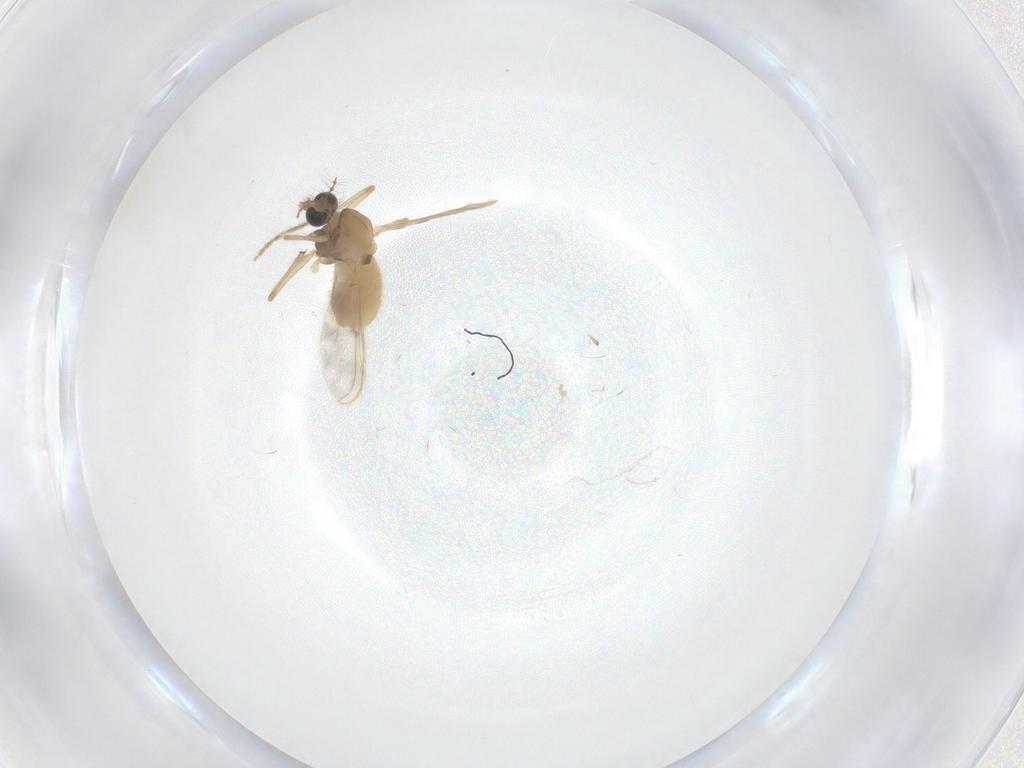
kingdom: Animalia
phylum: Arthropoda
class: Insecta
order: Diptera
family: Chironomidae
